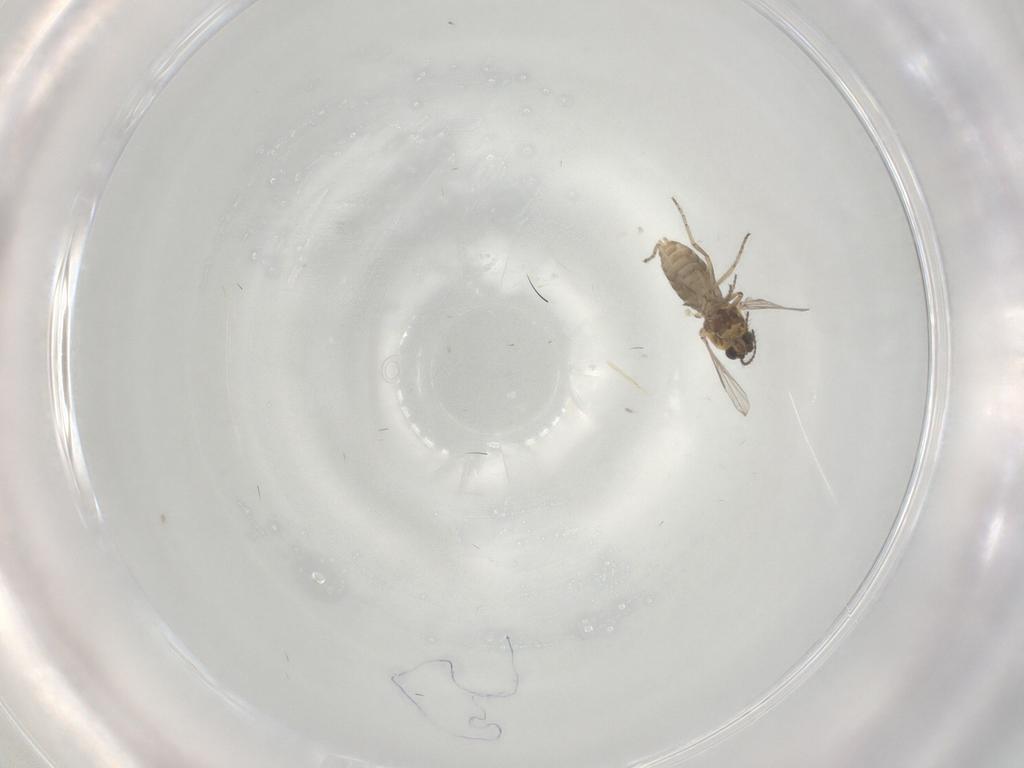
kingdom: Animalia
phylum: Arthropoda
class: Insecta
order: Diptera
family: Ceratopogonidae
